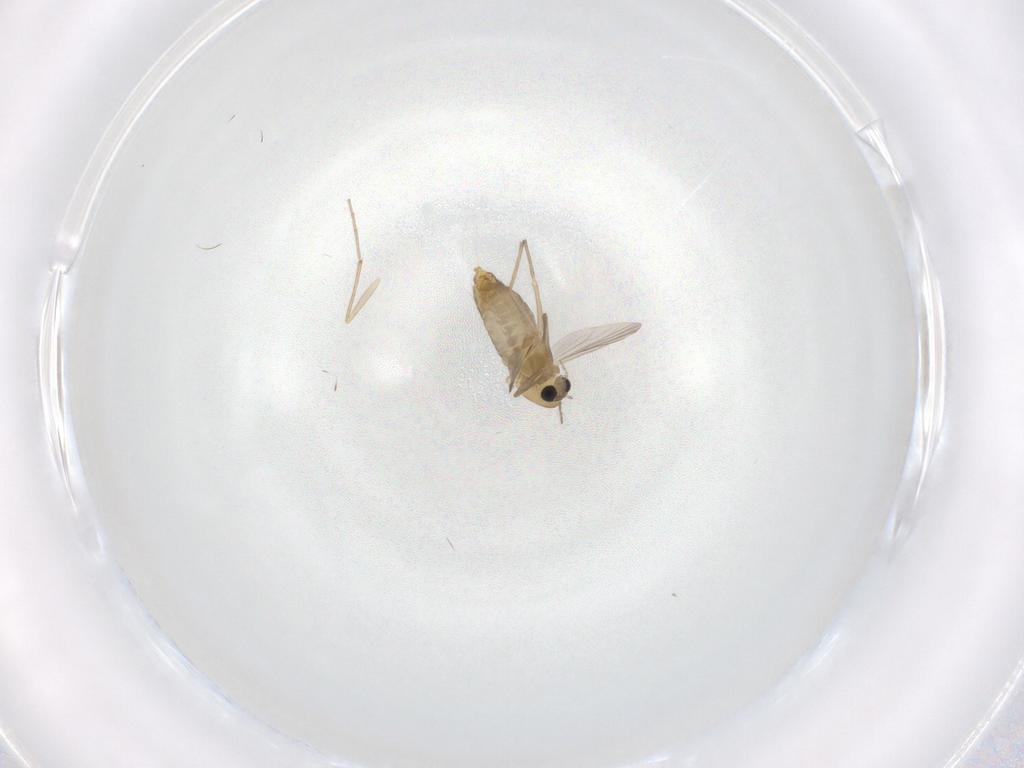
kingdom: Animalia
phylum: Arthropoda
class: Insecta
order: Diptera
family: Chironomidae
